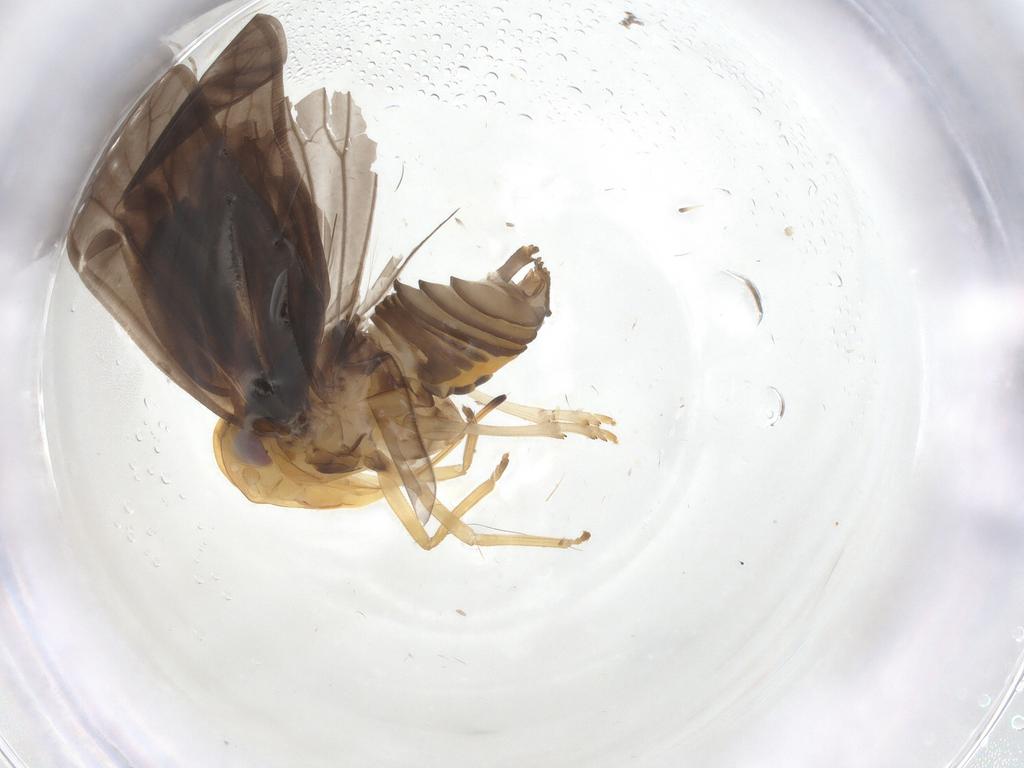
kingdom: Animalia
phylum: Arthropoda
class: Insecta
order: Hemiptera
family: Kinnaridae
